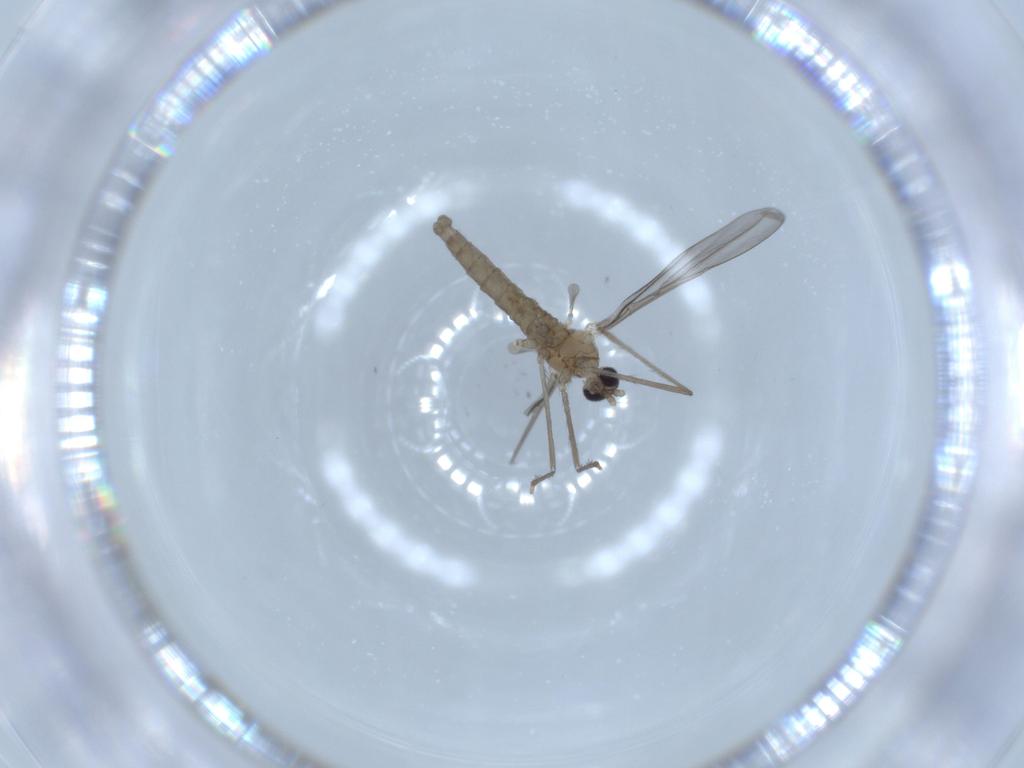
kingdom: Animalia
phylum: Arthropoda
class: Insecta
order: Diptera
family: Cecidomyiidae
